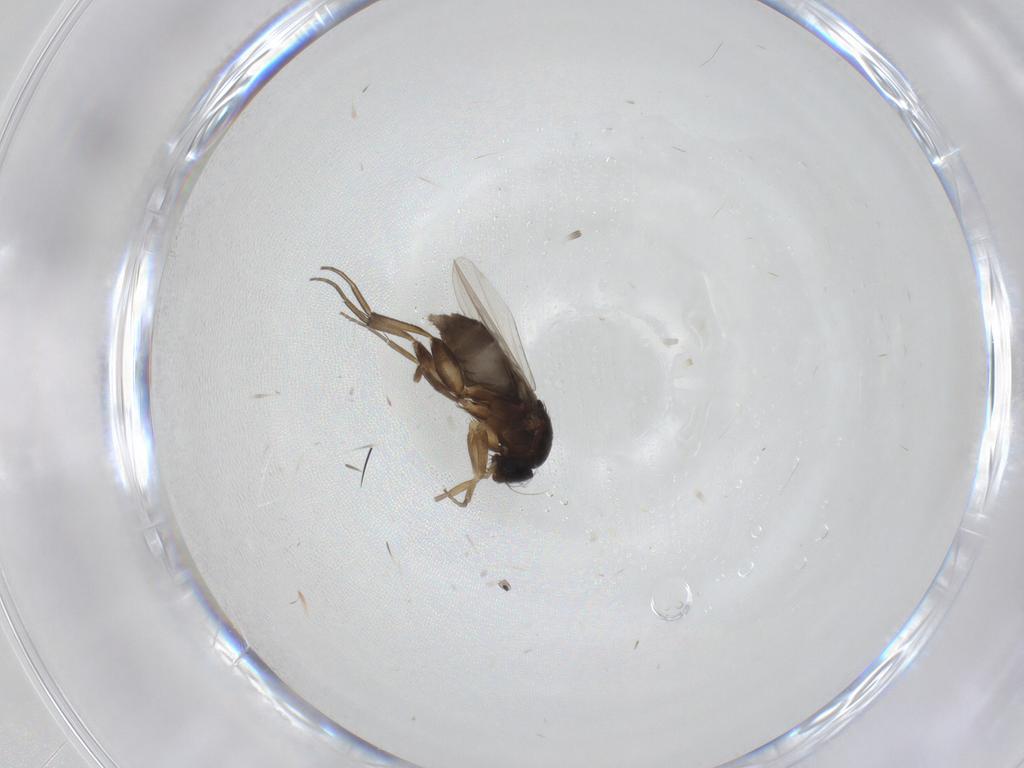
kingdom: Animalia
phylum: Arthropoda
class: Insecta
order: Diptera
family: Phoridae
